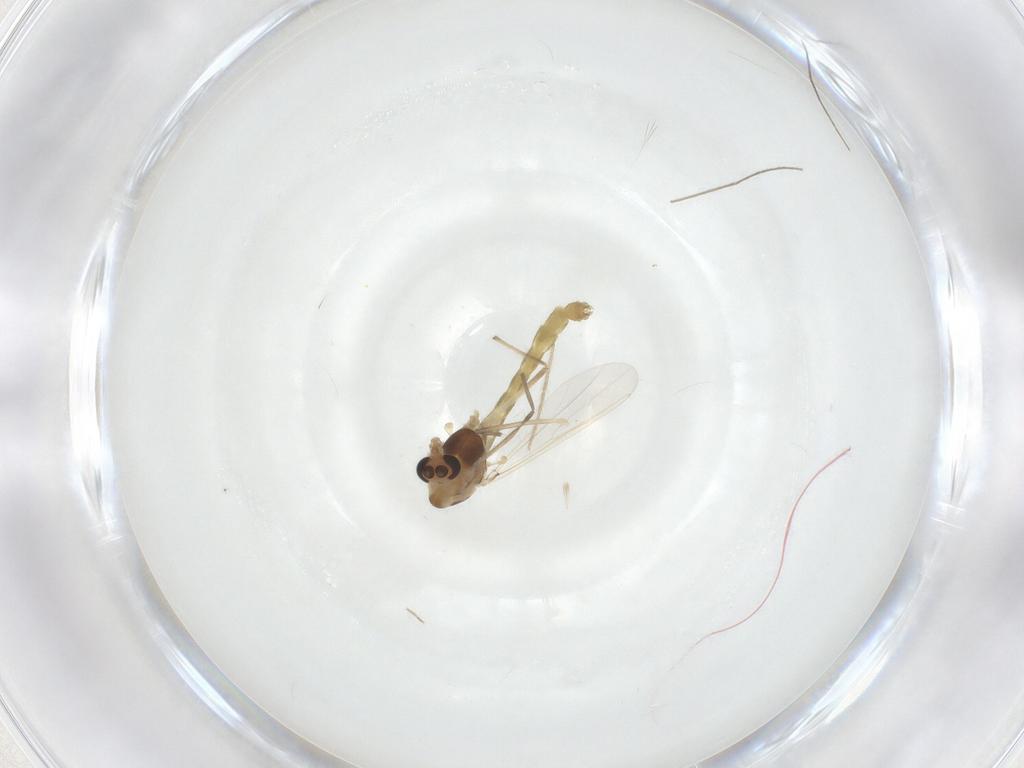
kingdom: Animalia
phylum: Arthropoda
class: Insecta
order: Diptera
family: Chironomidae
